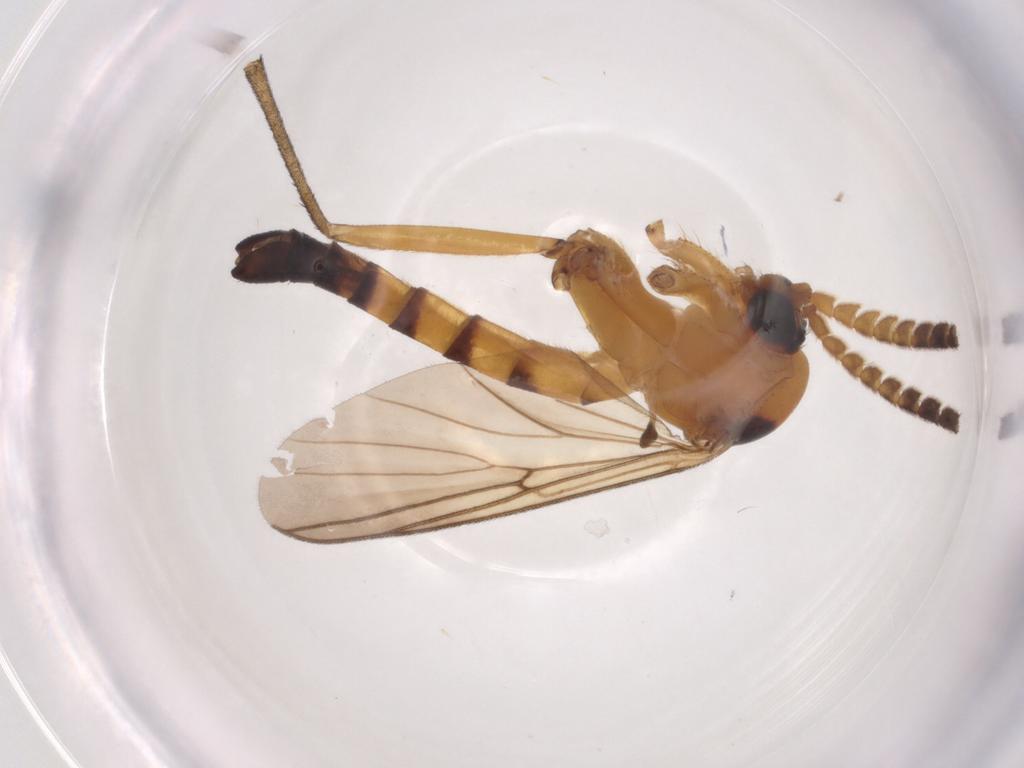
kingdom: Animalia
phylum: Arthropoda
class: Insecta
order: Diptera
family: Mycetophilidae
